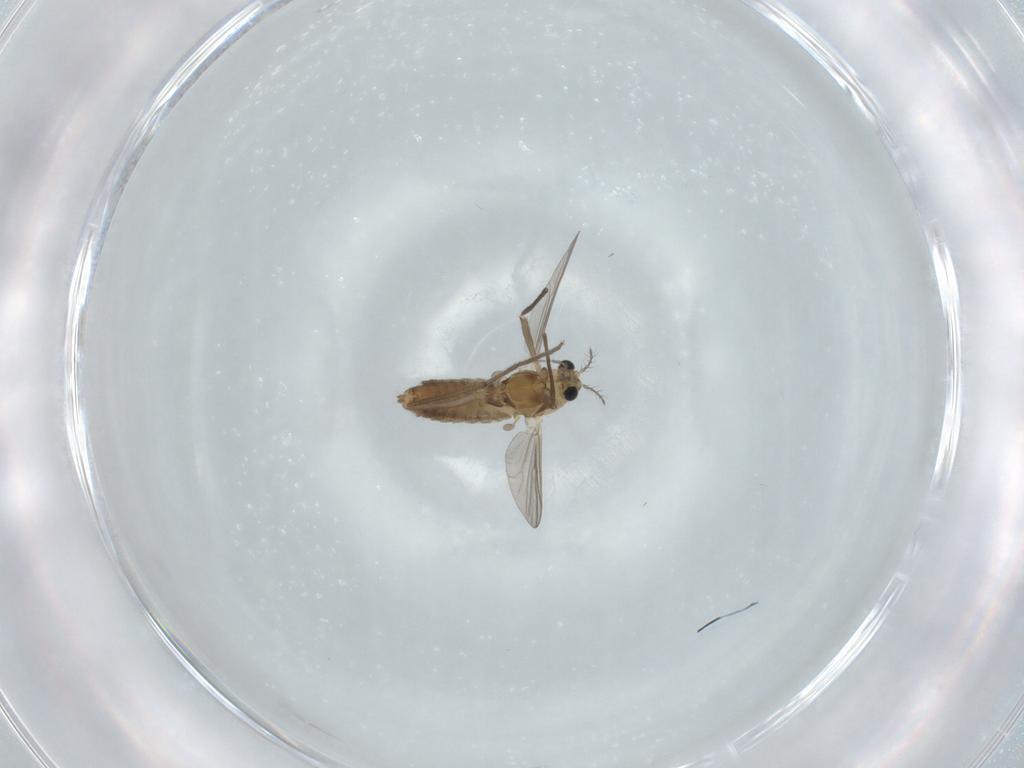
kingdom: Animalia
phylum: Arthropoda
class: Insecta
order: Diptera
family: Chironomidae
